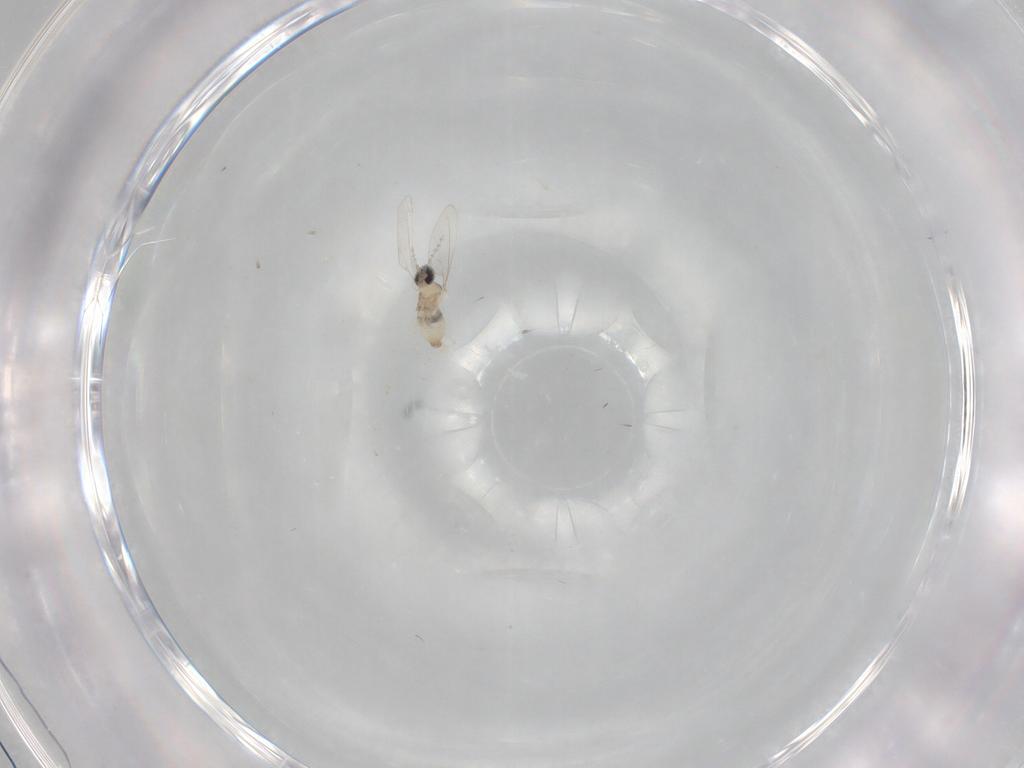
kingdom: Animalia
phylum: Arthropoda
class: Insecta
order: Diptera
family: Cecidomyiidae
